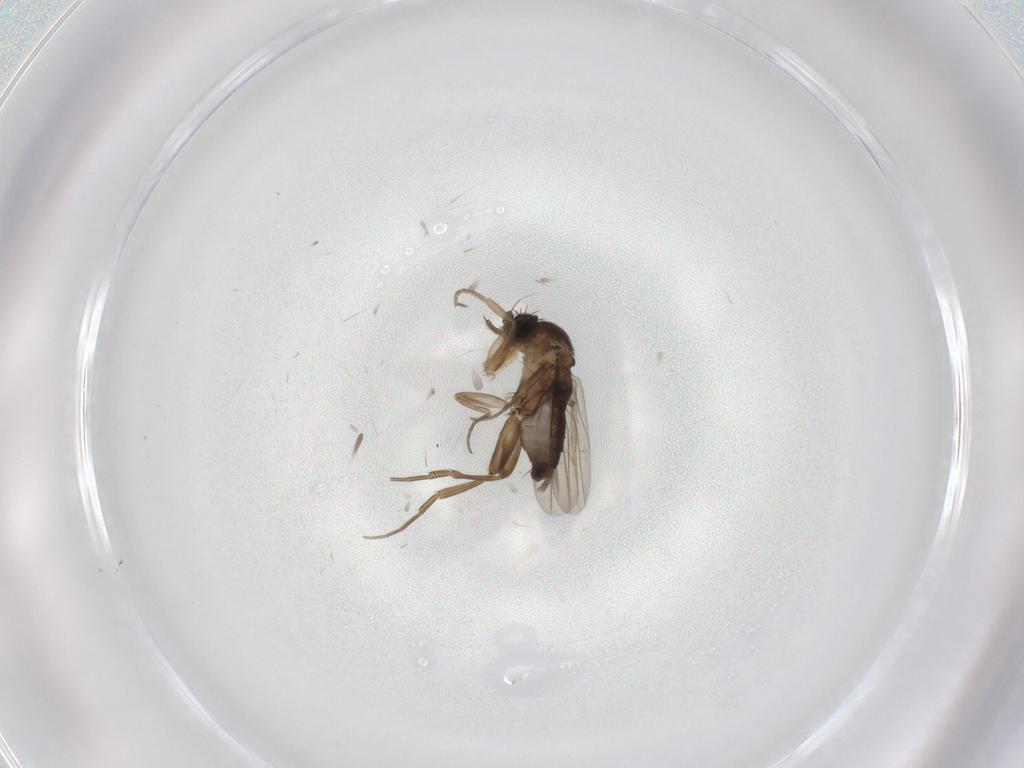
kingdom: Animalia
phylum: Arthropoda
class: Insecta
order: Diptera
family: Phoridae
